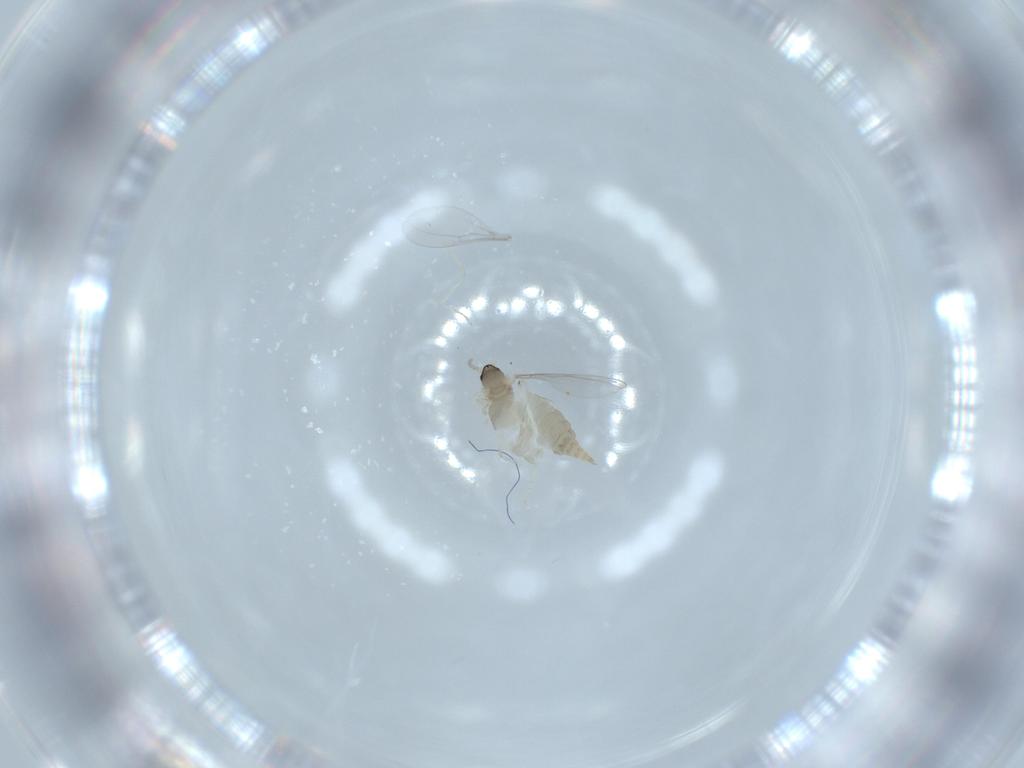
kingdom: Animalia
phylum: Arthropoda
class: Insecta
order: Diptera
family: Cecidomyiidae
